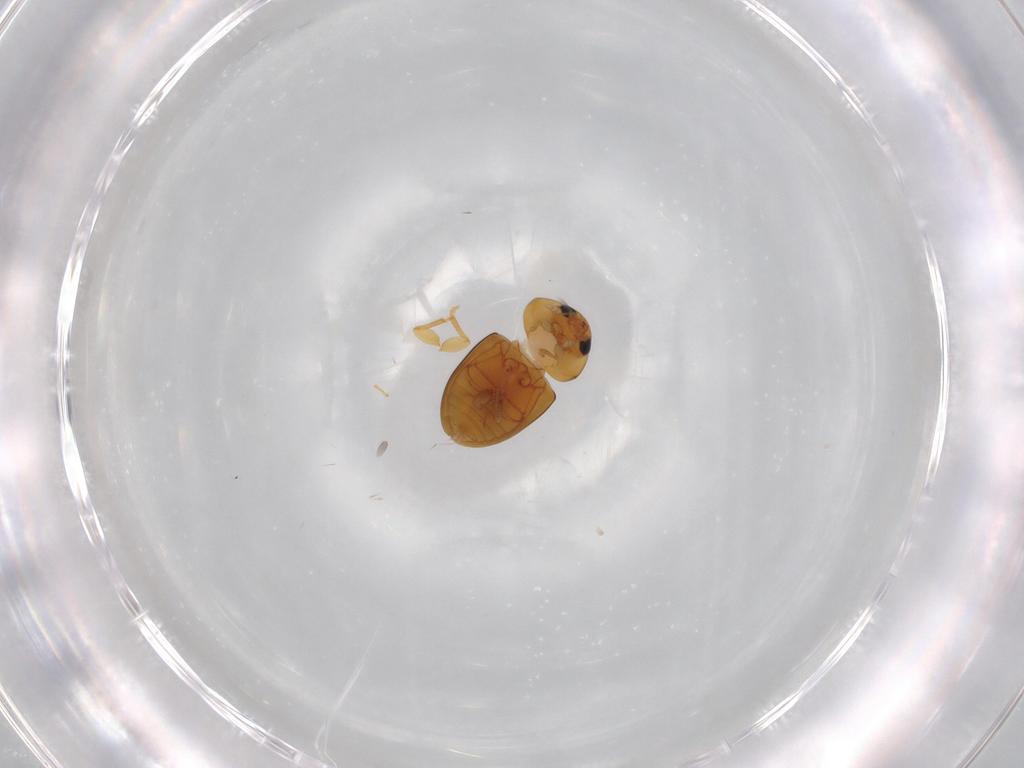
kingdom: Animalia
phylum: Arthropoda
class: Insecta
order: Coleoptera
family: Phalacridae
